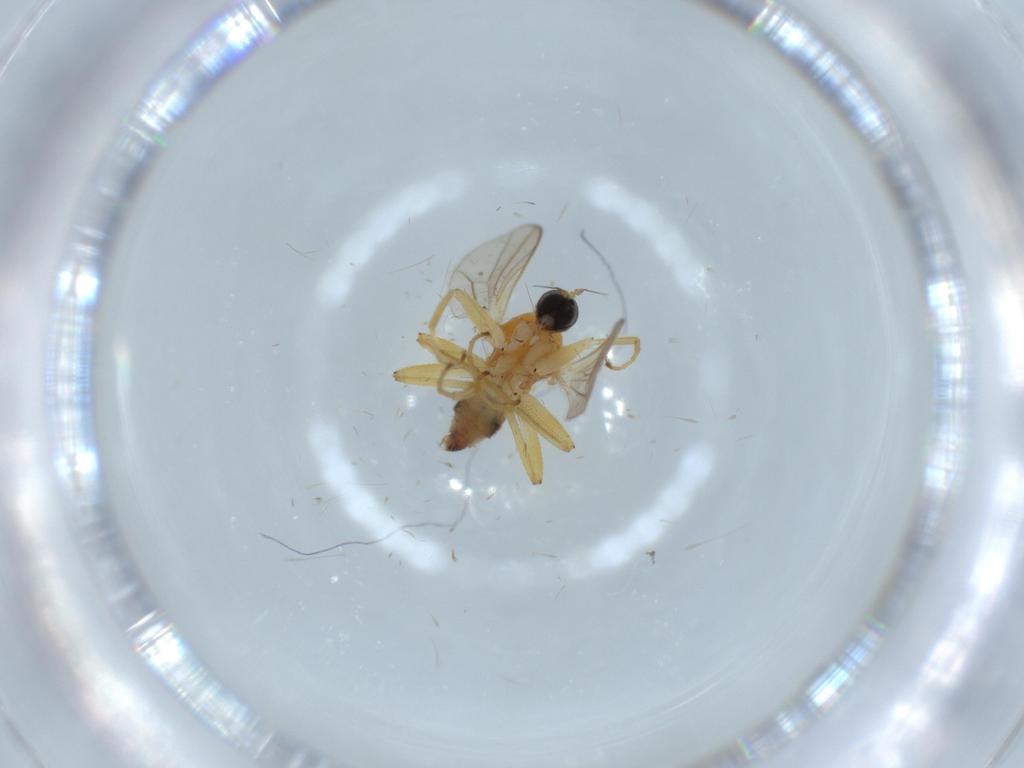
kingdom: Animalia
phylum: Arthropoda
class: Insecta
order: Diptera
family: Hybotidae
